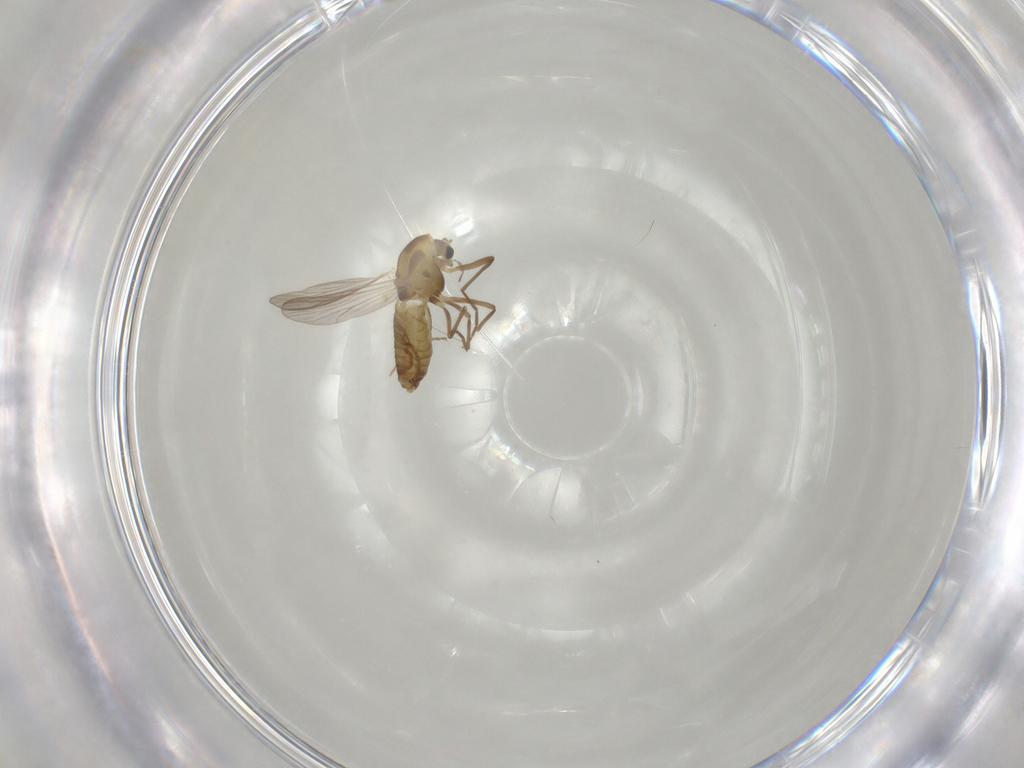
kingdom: Animalia
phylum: Arthropoda
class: Insecta
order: Diptera
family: Chironomidae
